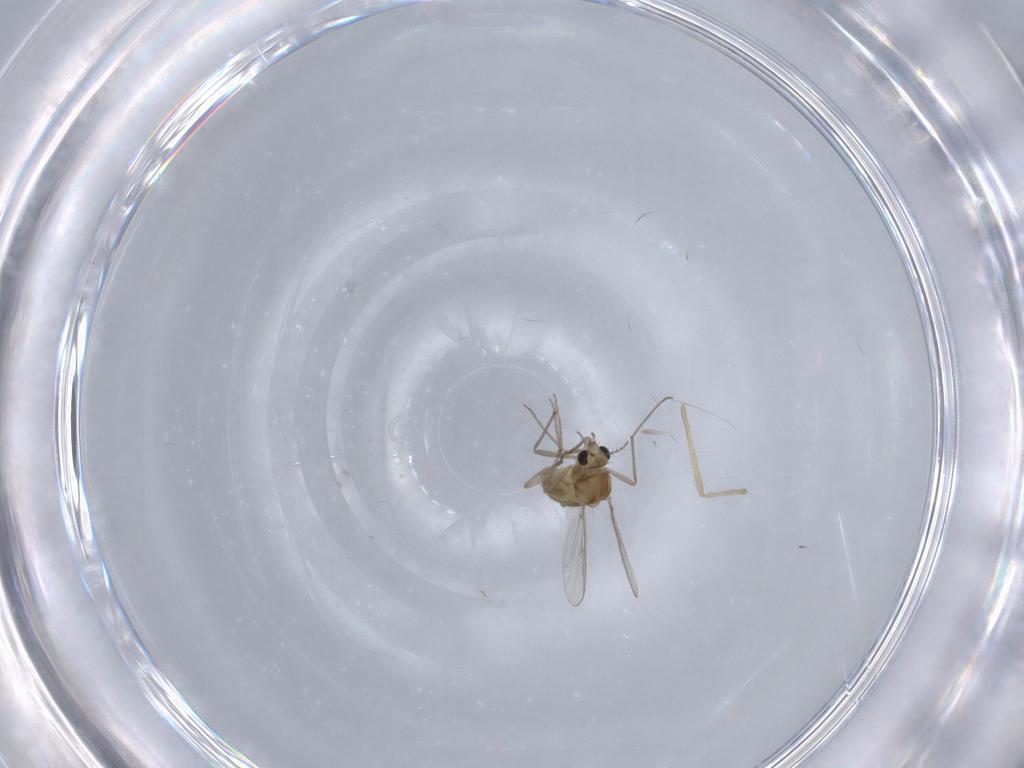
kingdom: Animalia
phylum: Arthropoda
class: Insecta
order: Diptera
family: Chironomidae
